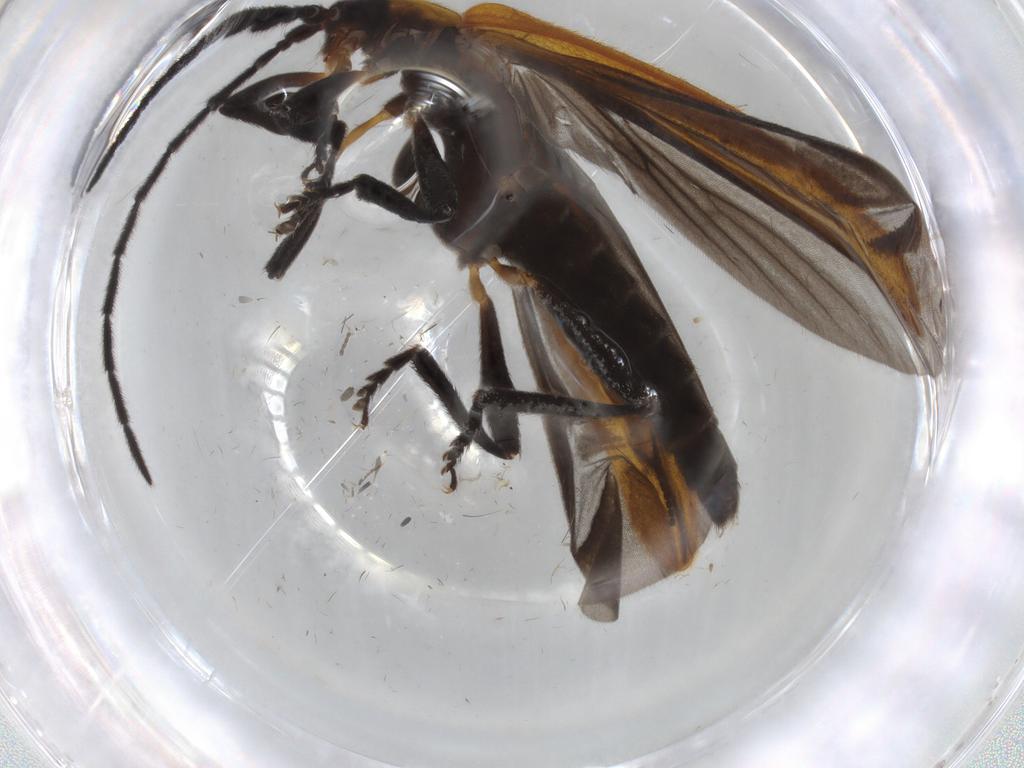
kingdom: Animalia
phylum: Arthropoda
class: Insecta
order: Coleoptera
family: Lycidae
